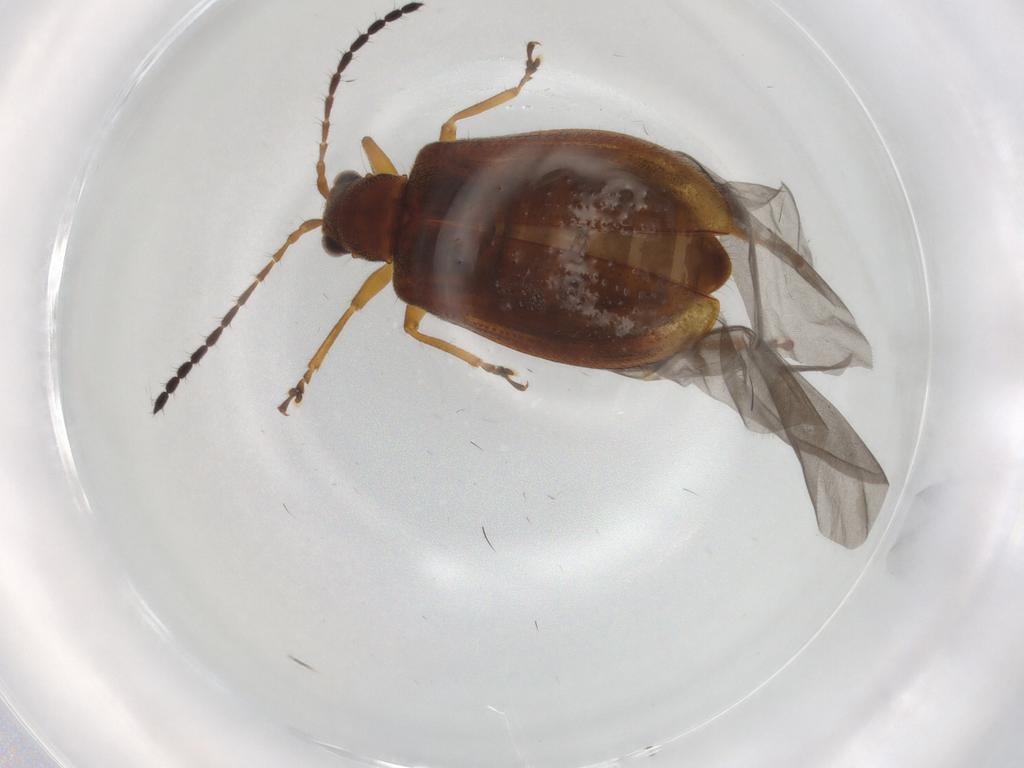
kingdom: Animalia
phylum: Arthropoda
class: Insecta
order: Coleoptera
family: Chrysomelidae
